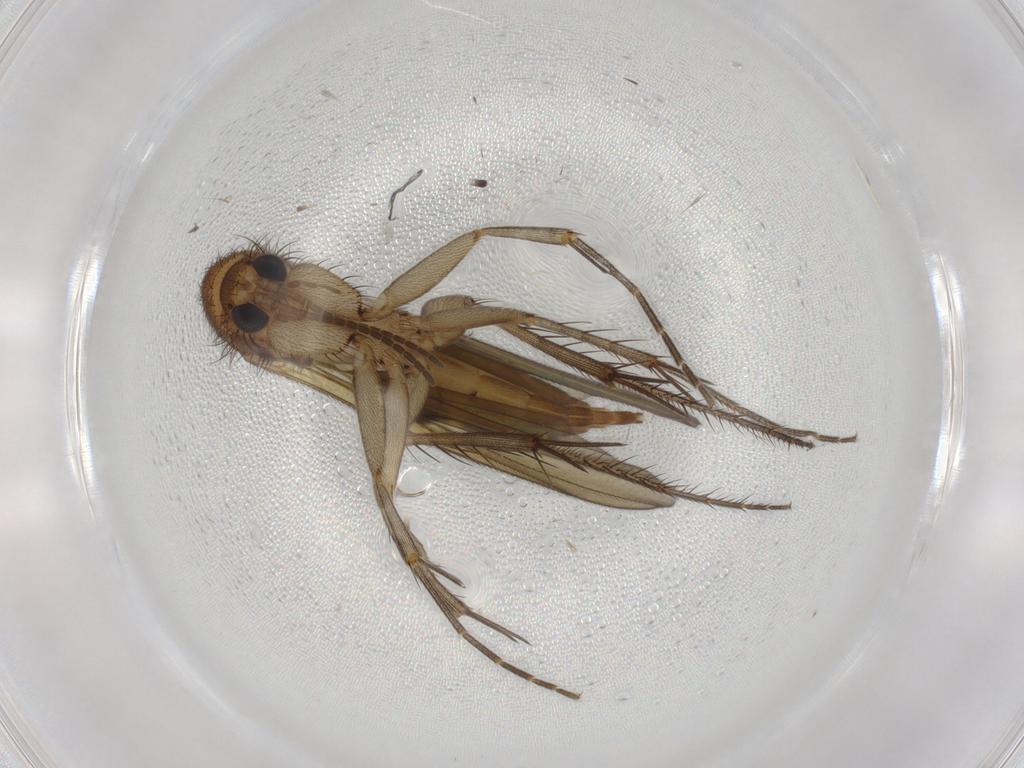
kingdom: Animalia
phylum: Arthropoda
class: Insecta
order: Diptera
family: Mycetophilidae
